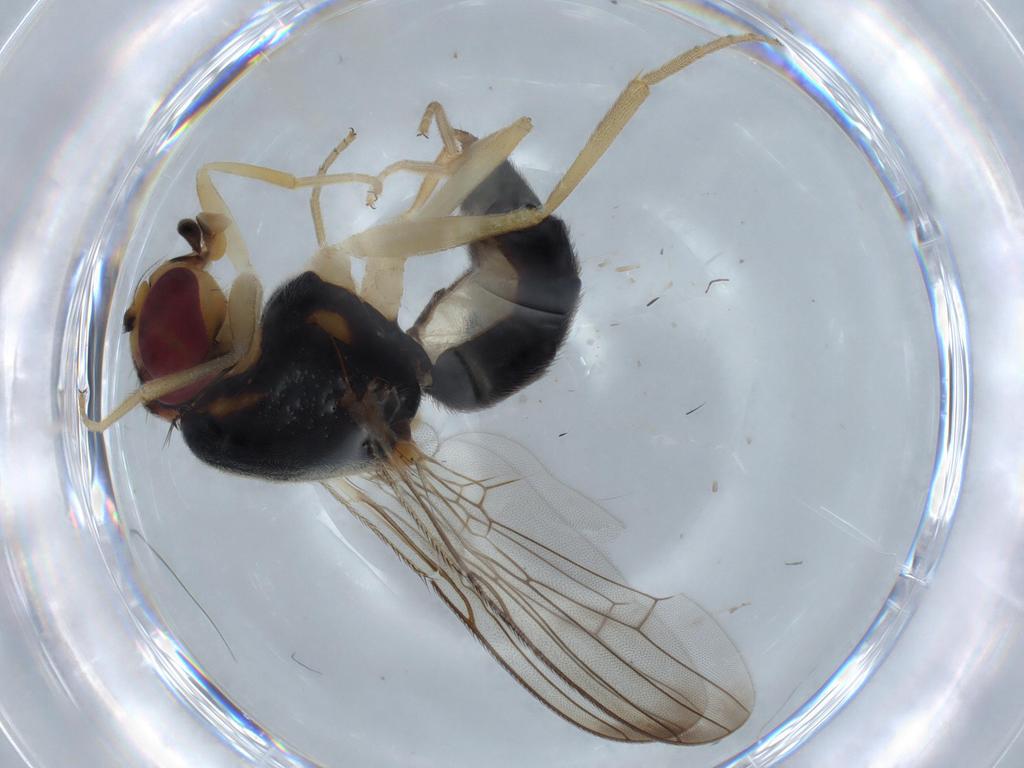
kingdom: Animalia
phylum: Arthropoda
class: Insecta
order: Diptera
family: Psilidae
